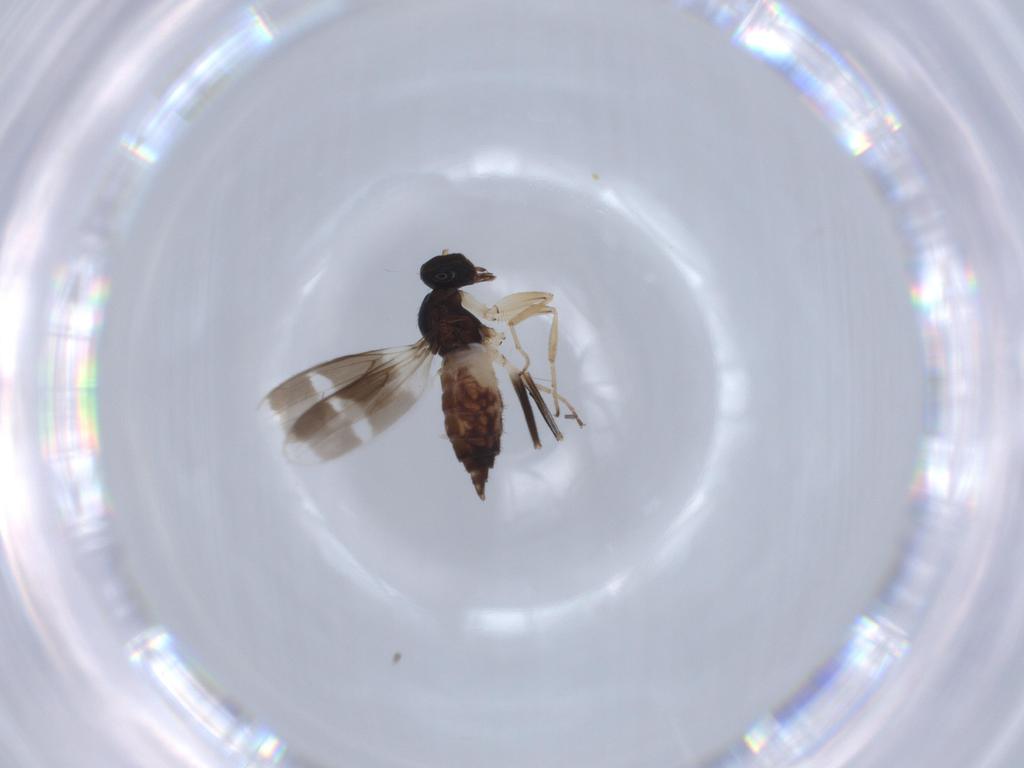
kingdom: Animalia
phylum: Arthropoda
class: Insecta
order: Diptera
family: Hybotidae
